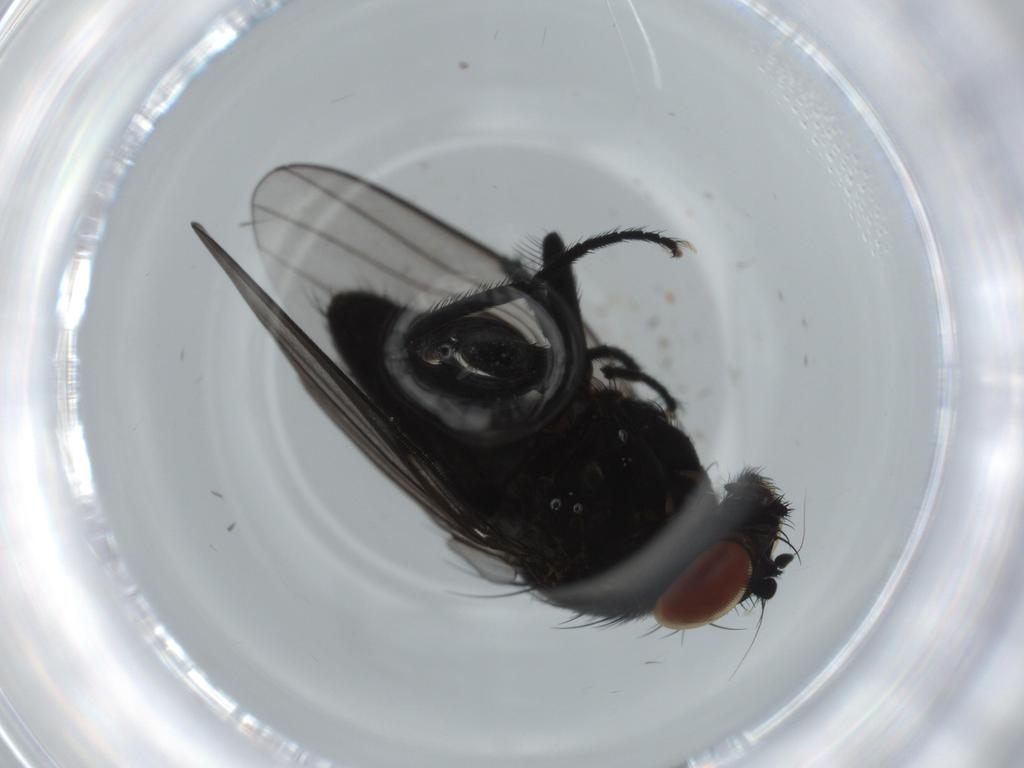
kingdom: Animalia
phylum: Arthropoda
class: Insecta
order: Diptera
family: Milichiidae
